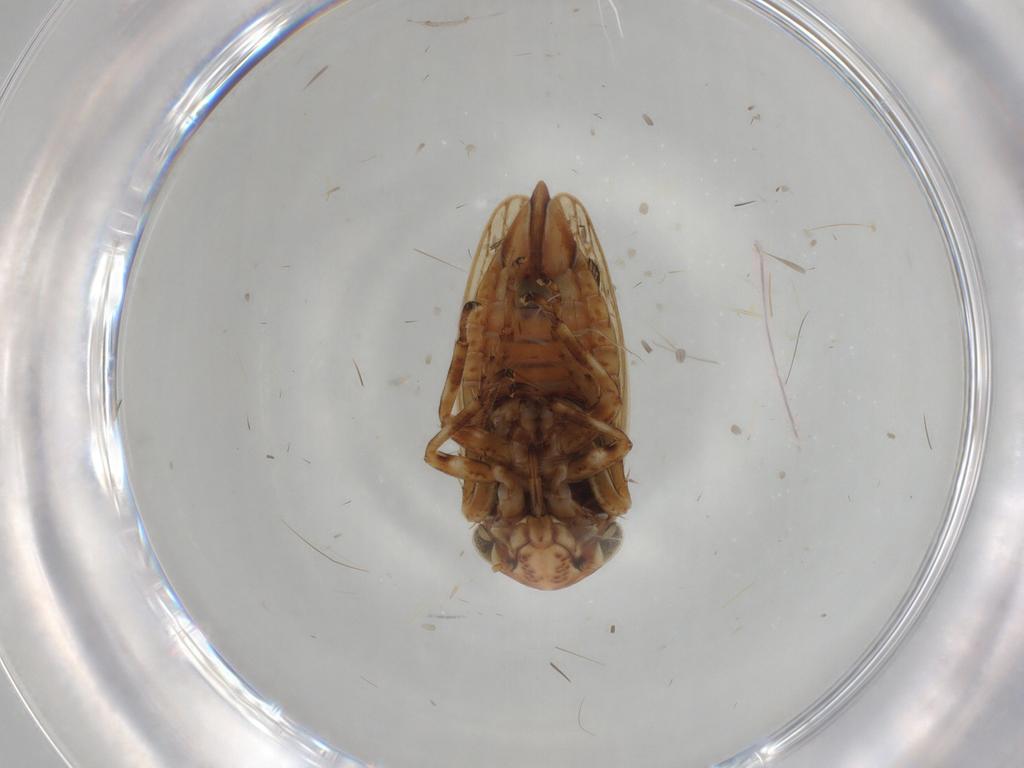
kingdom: Animalia
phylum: Arthropoda
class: Insecta
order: Hemiptera
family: Cicadellidae
